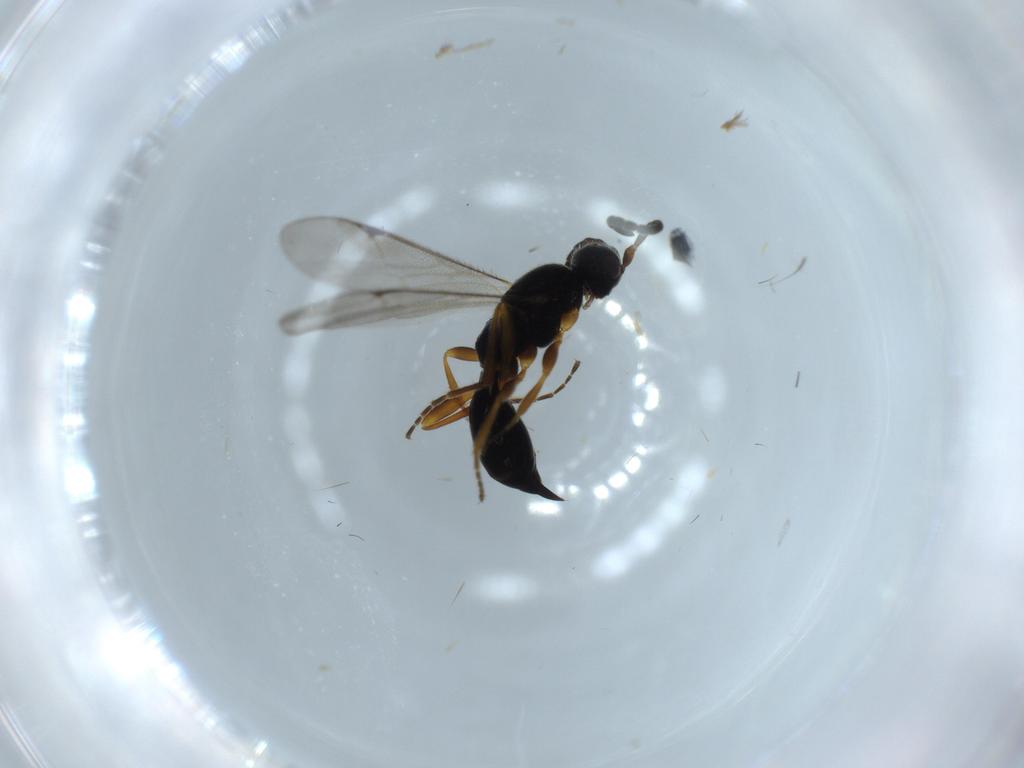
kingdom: Animalia
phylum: Arthropoda
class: Insecta
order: Hymenoptera
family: Proctotrupidae
